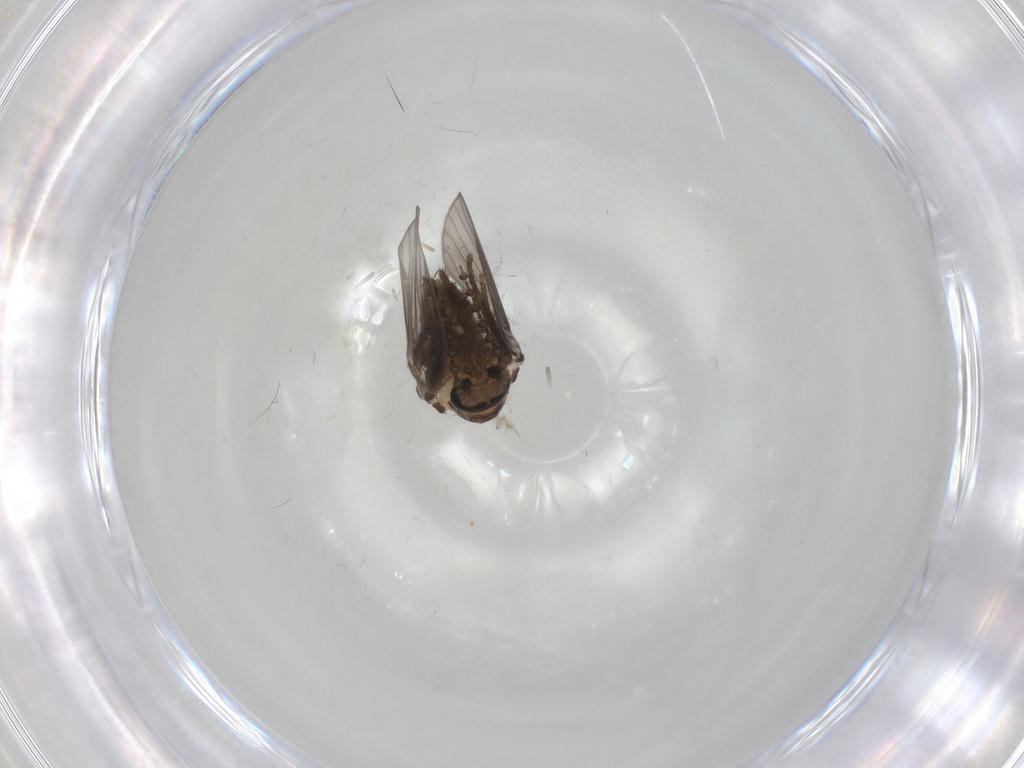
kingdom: Animalia
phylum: Arthropoda
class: Insecta
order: Diptera
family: Psychodidae
